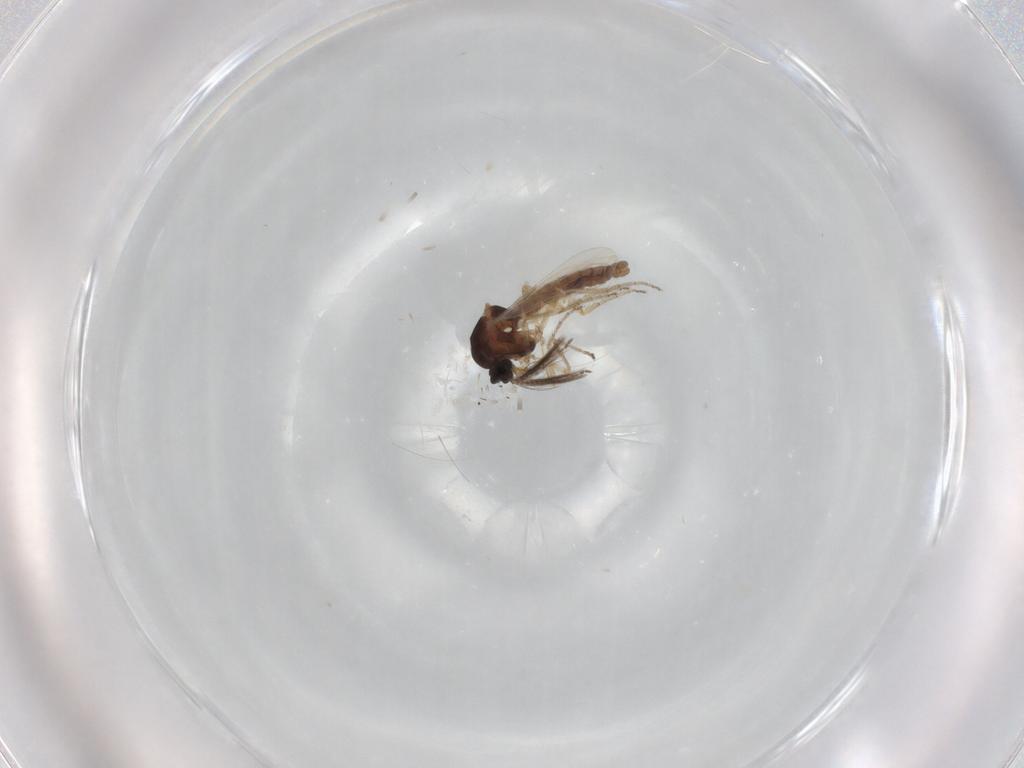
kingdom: Animalia
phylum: Arthropoda
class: Insecta
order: Diptera
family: Ceratopogonidae
